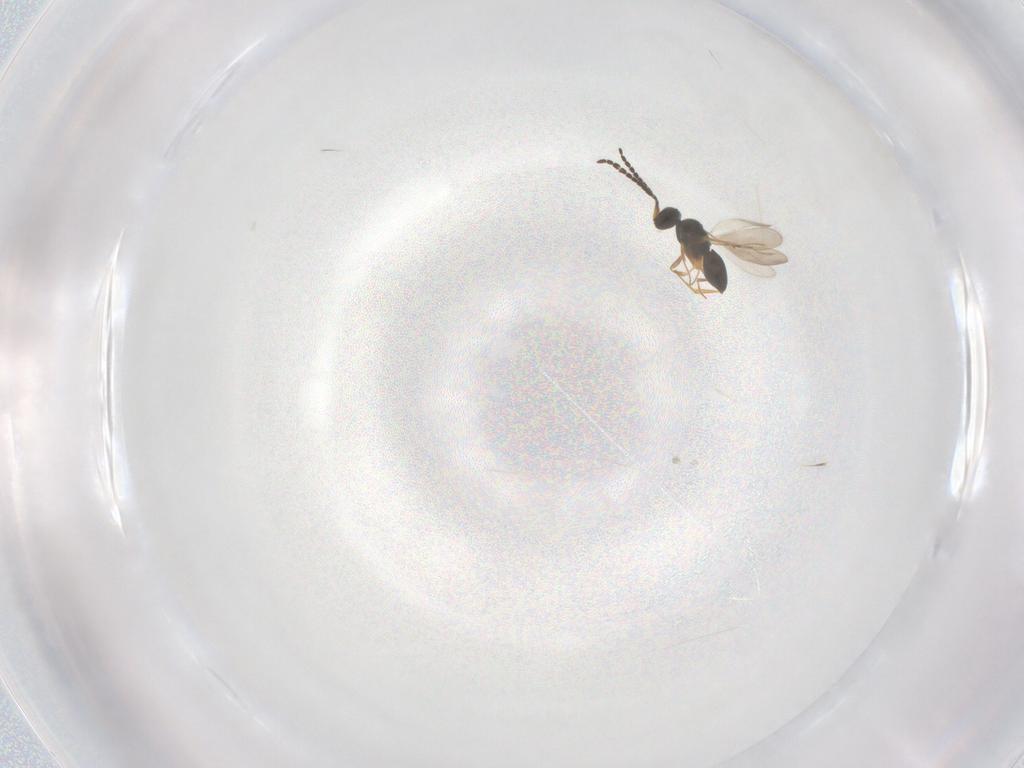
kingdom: Animalia
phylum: Arthropoda
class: Insecta
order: Hymenoptera
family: Ceraphronidae
